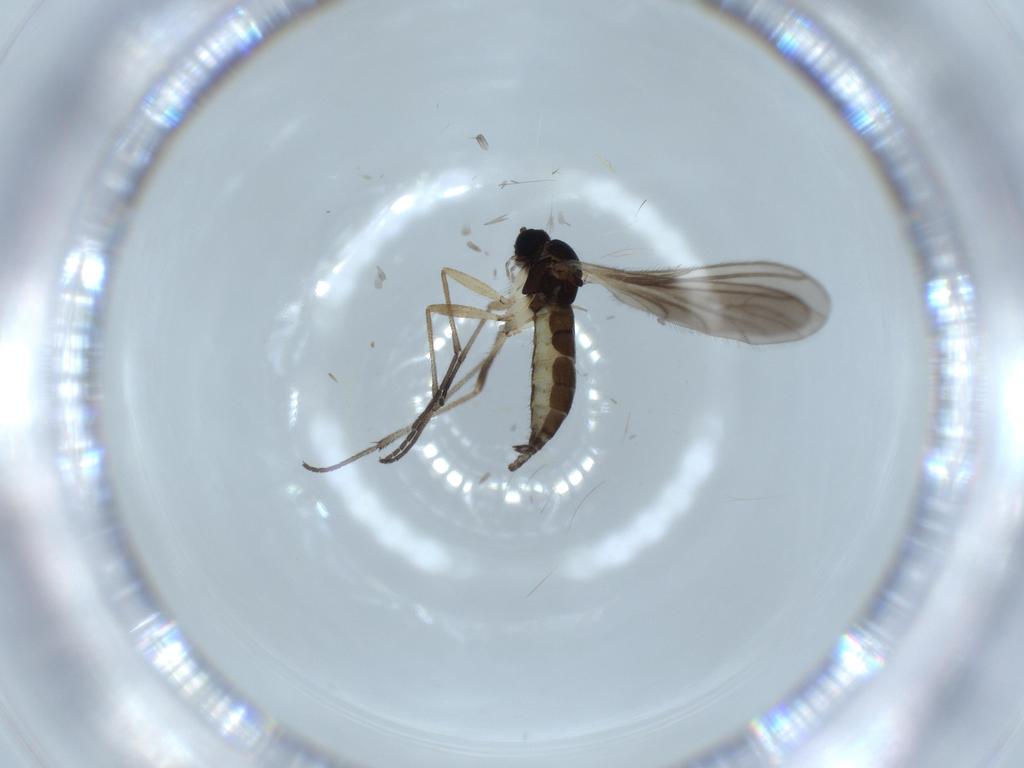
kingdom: Animalia
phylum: Arthropoda
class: Insecta
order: Diptera
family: Sciaridae
